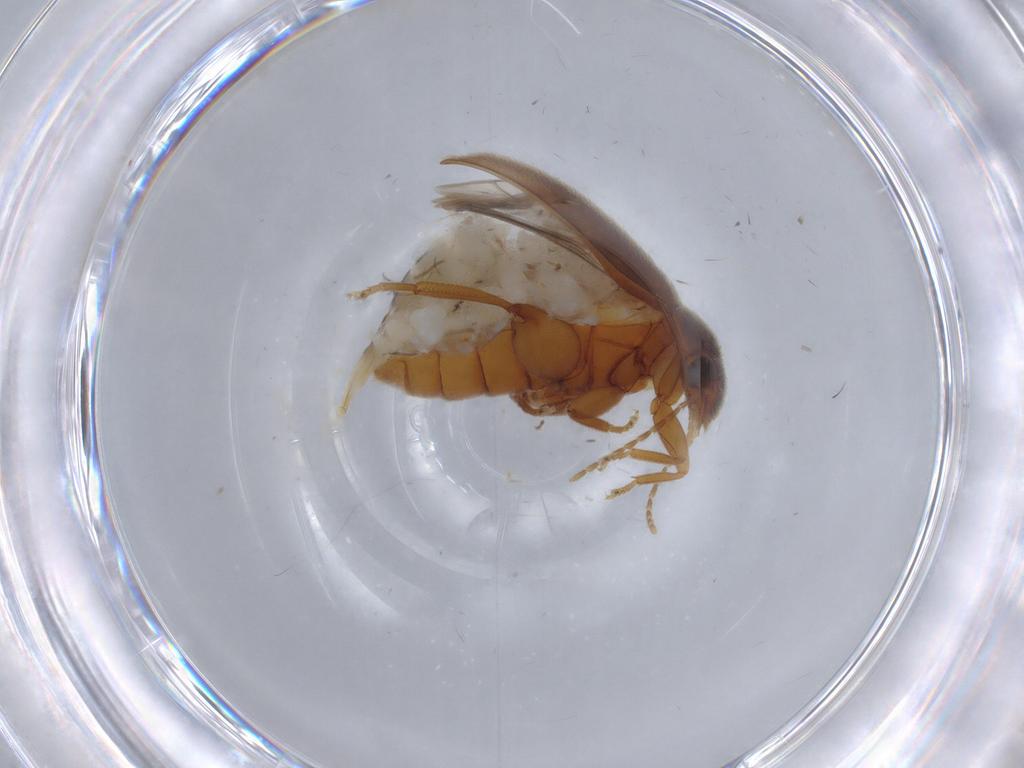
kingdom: Animalia
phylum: Arthropoda
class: Insecta
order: Coleoptera
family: Scirtidae
